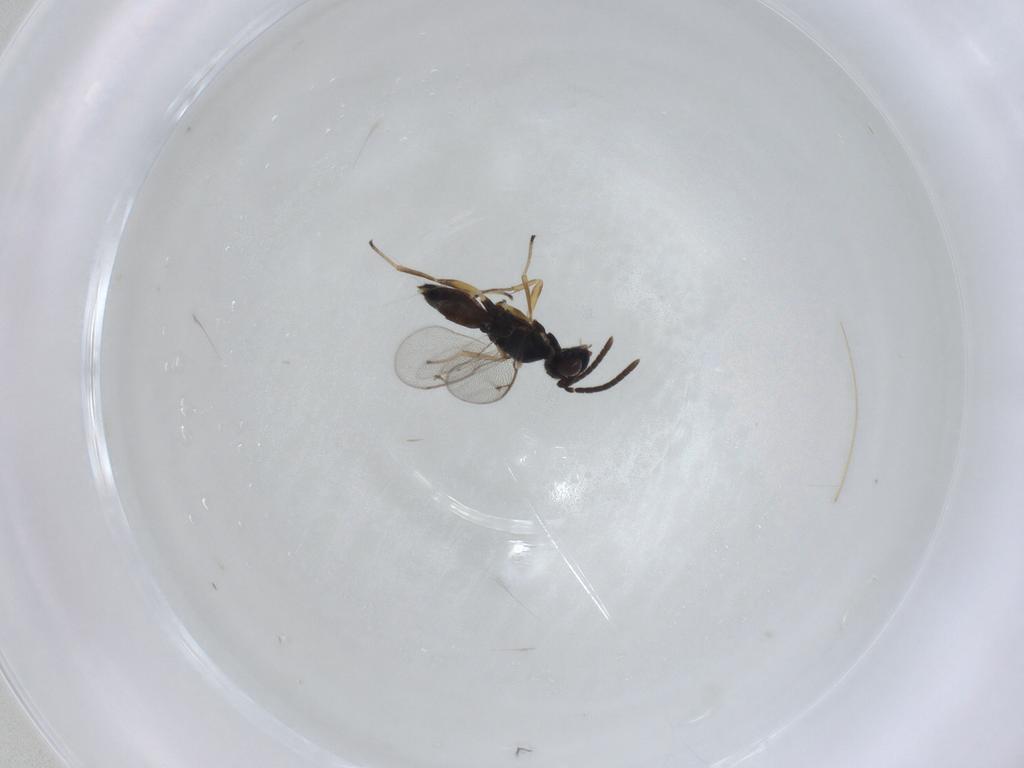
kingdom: Animalia
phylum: Arthropoda
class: Insecta
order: Hymenoptera
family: Eupelmidae
